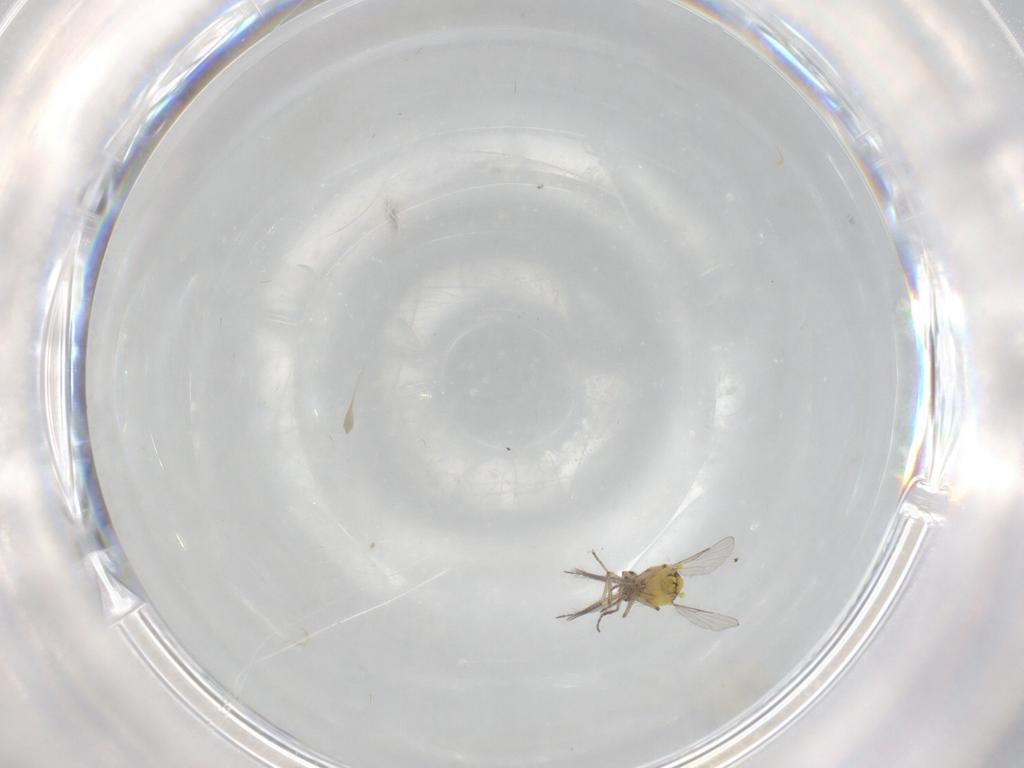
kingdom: Animalia
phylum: Arthropoda
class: Insecta
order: Diptera
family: Ceratopogonidae
